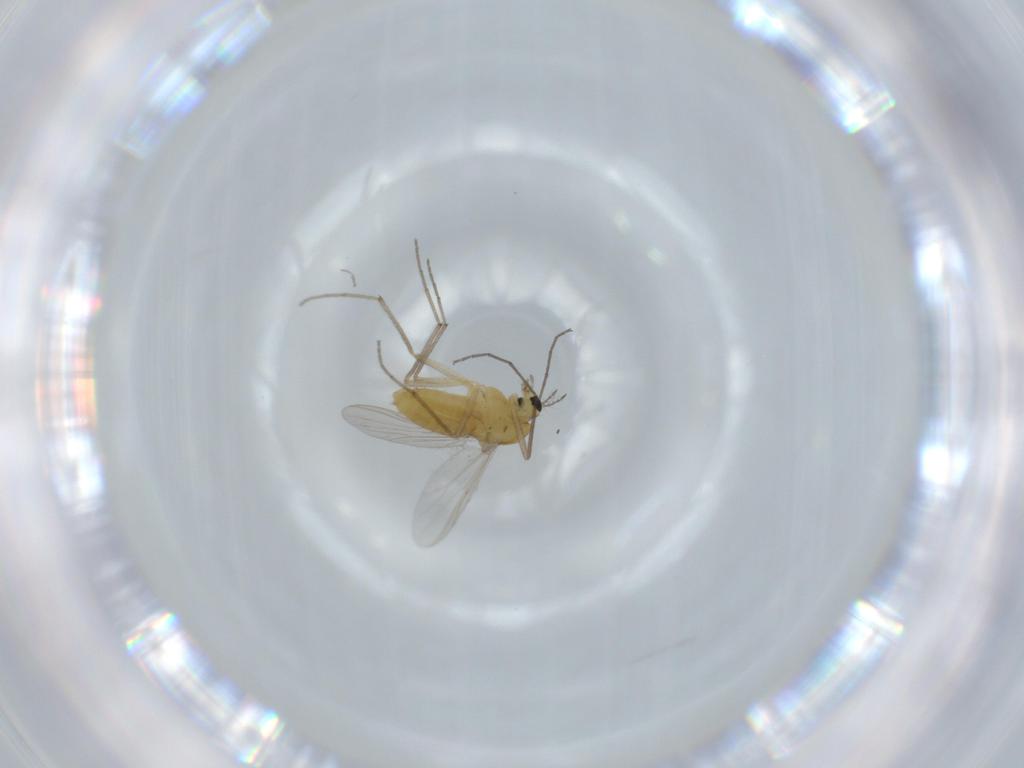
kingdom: Animalia
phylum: Arthropoda
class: Insecta
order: Diptera
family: Chironomidae
